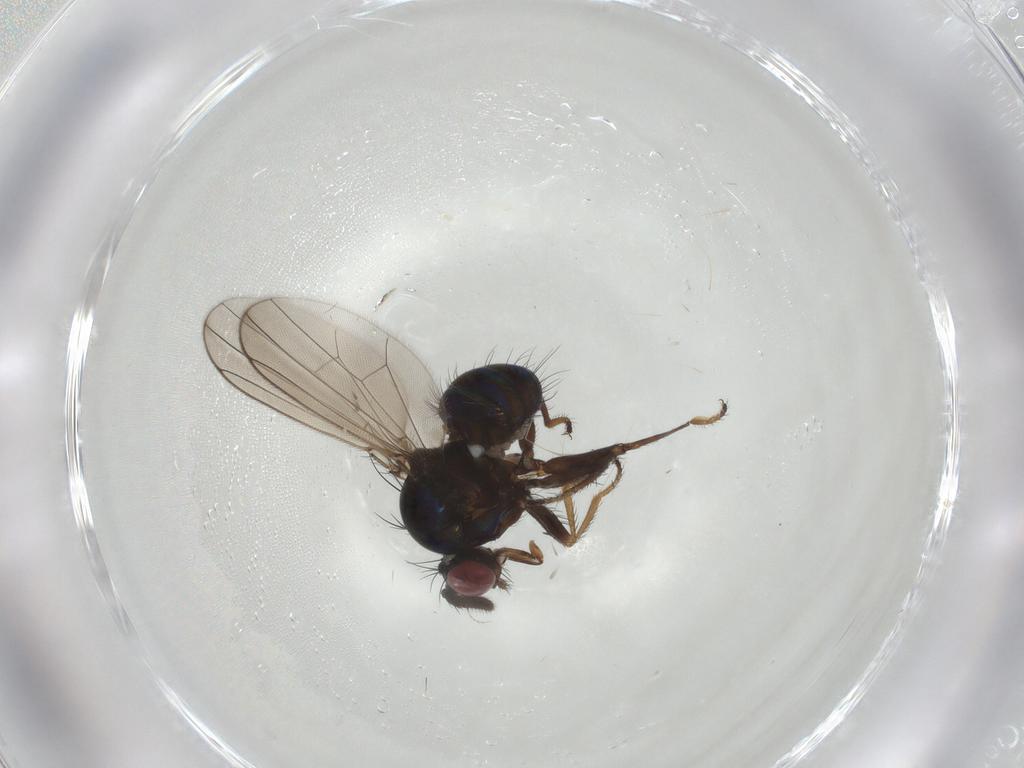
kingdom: Animalia
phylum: Arthropoda
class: Insecta
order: Diptera
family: Ephydridae
